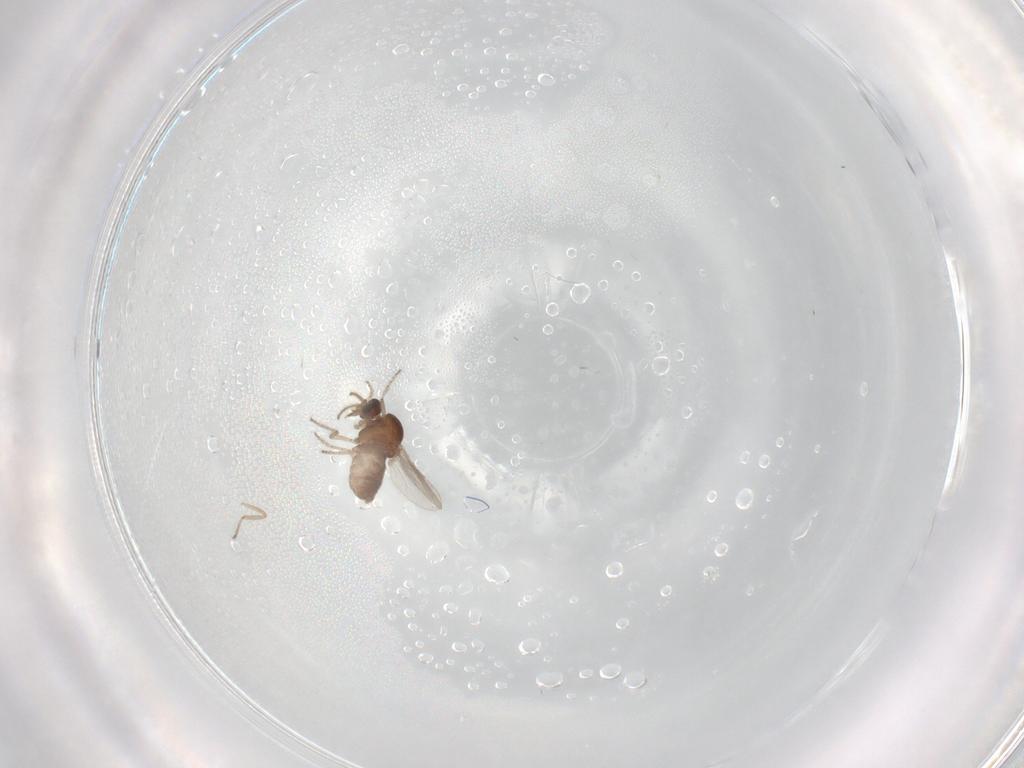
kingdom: Animalia
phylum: Arthropoda
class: Insecta
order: Diptera
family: Ceratopogonidae
